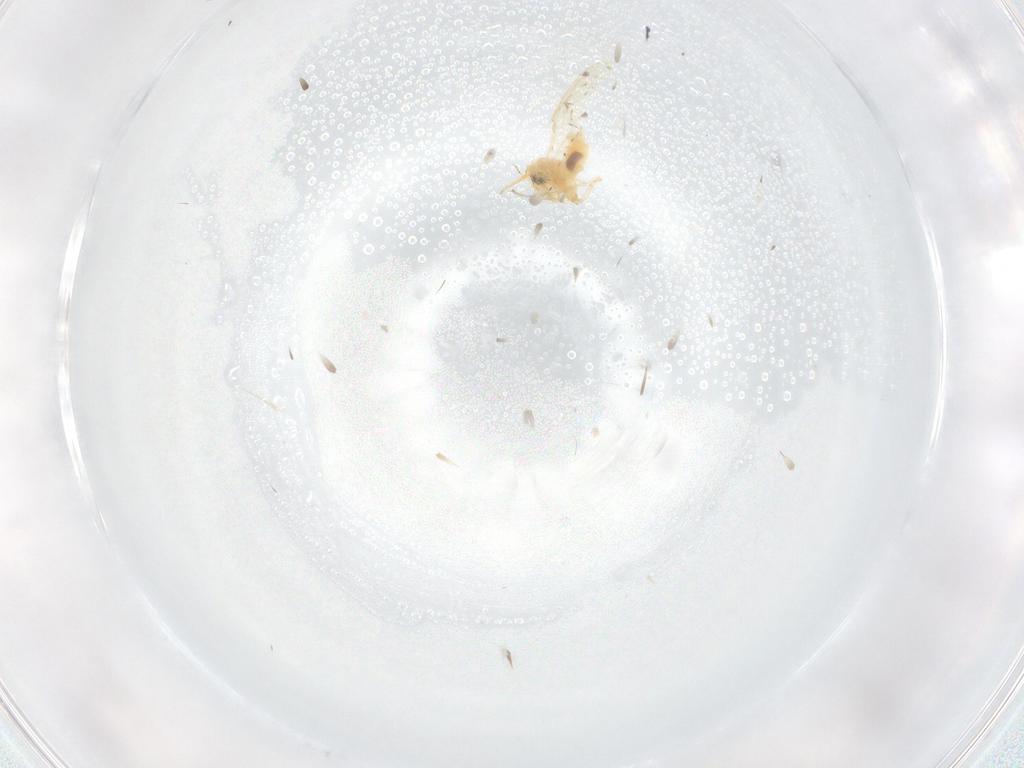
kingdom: Animalia
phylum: Arthropoda
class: Insecta
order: Diptera
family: Sciaridae
